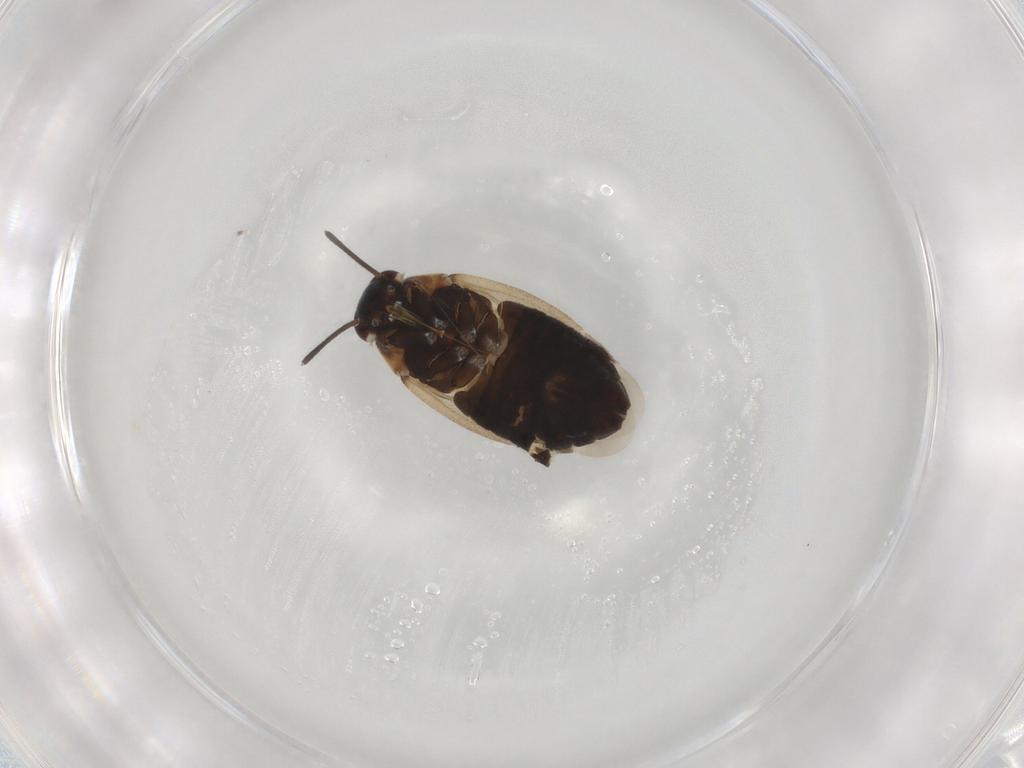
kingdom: Animalia
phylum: Arthropoda
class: Insecta
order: Hemiptera
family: Miridae
